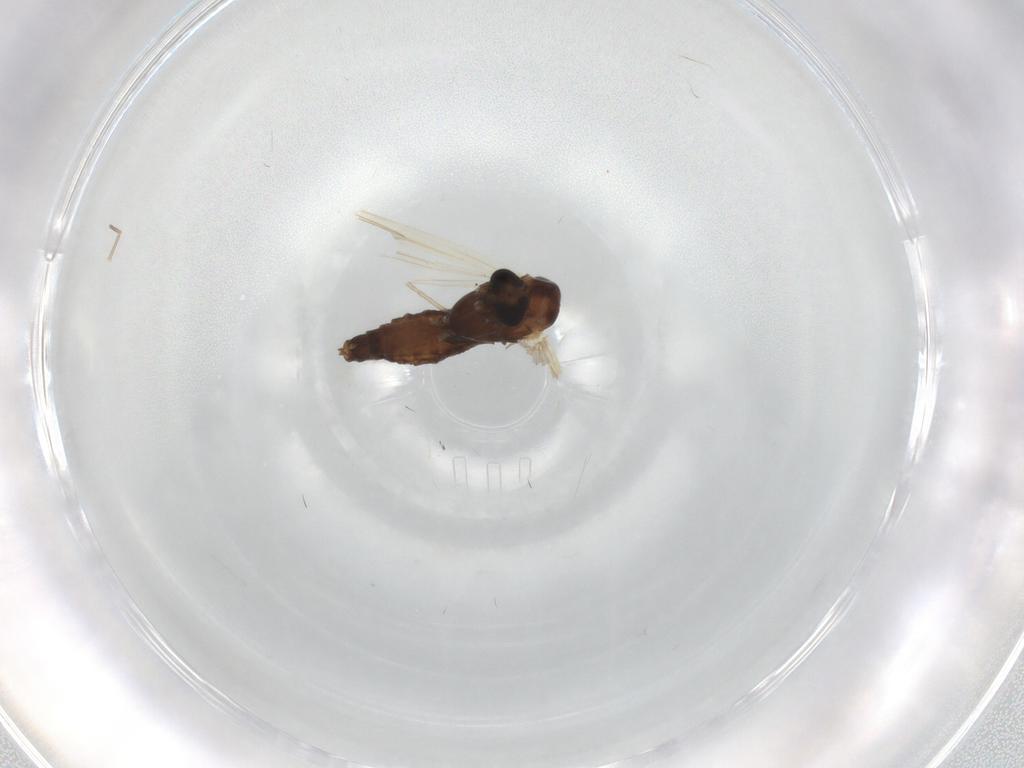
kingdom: Animalia
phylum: Arthropoda
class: Insecta
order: Diptera
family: Chironomidae
